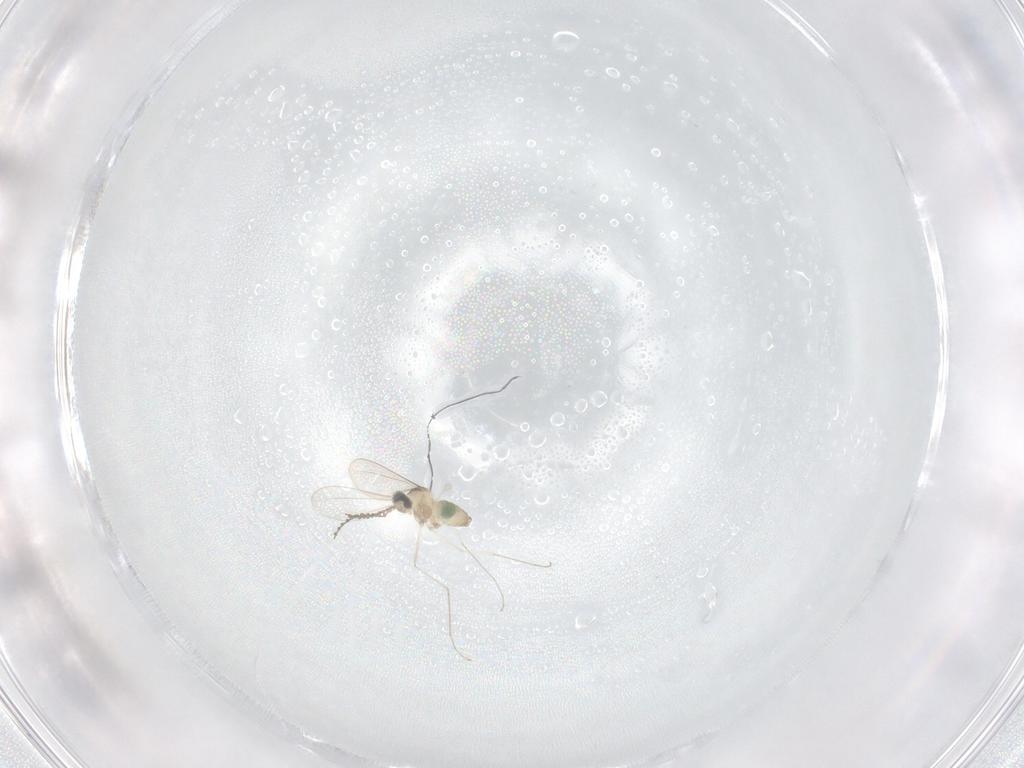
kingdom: Animalia
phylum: Arthropoda
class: Insecta
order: Diptera
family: Cecidomyiidae
